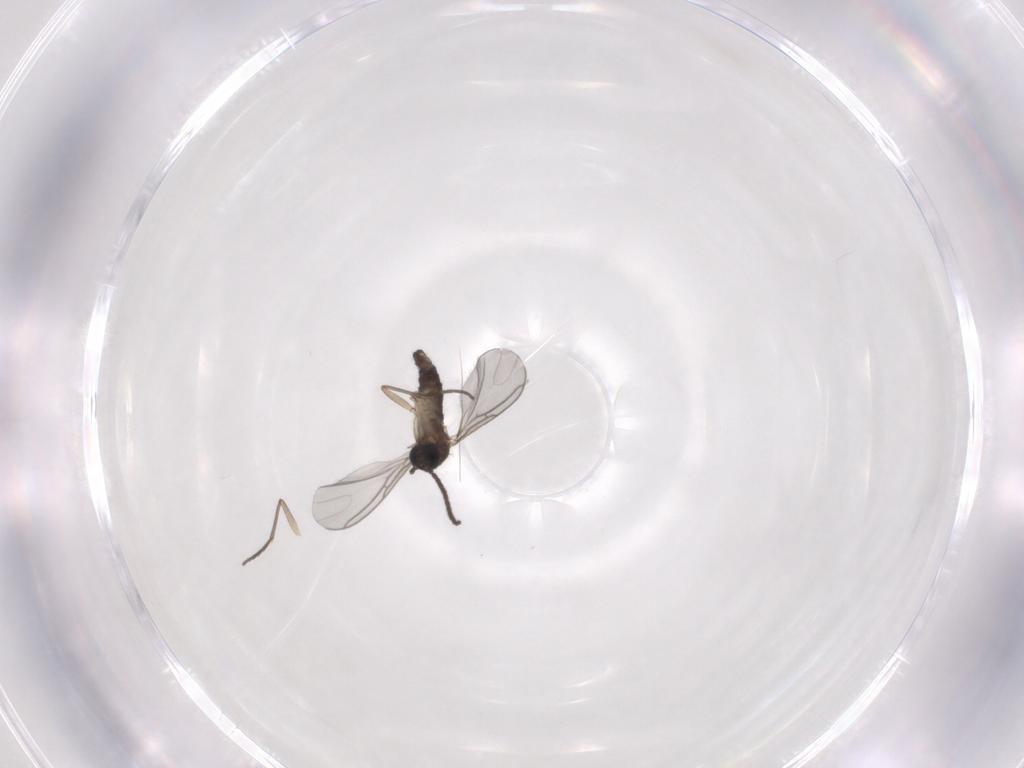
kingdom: Animalia
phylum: Arthropoda
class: Insecta
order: Diptera
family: Sciaridae
